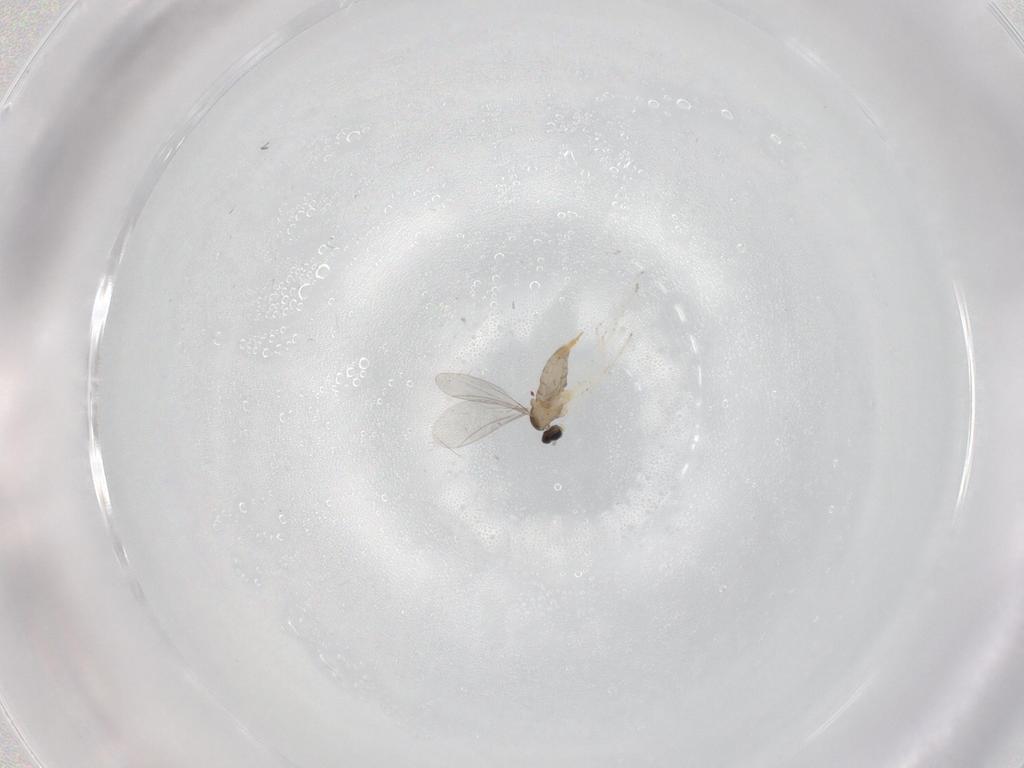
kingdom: Animalia
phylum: Arthropoda
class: Insecta
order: Diptera
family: Cecidomyiidae
